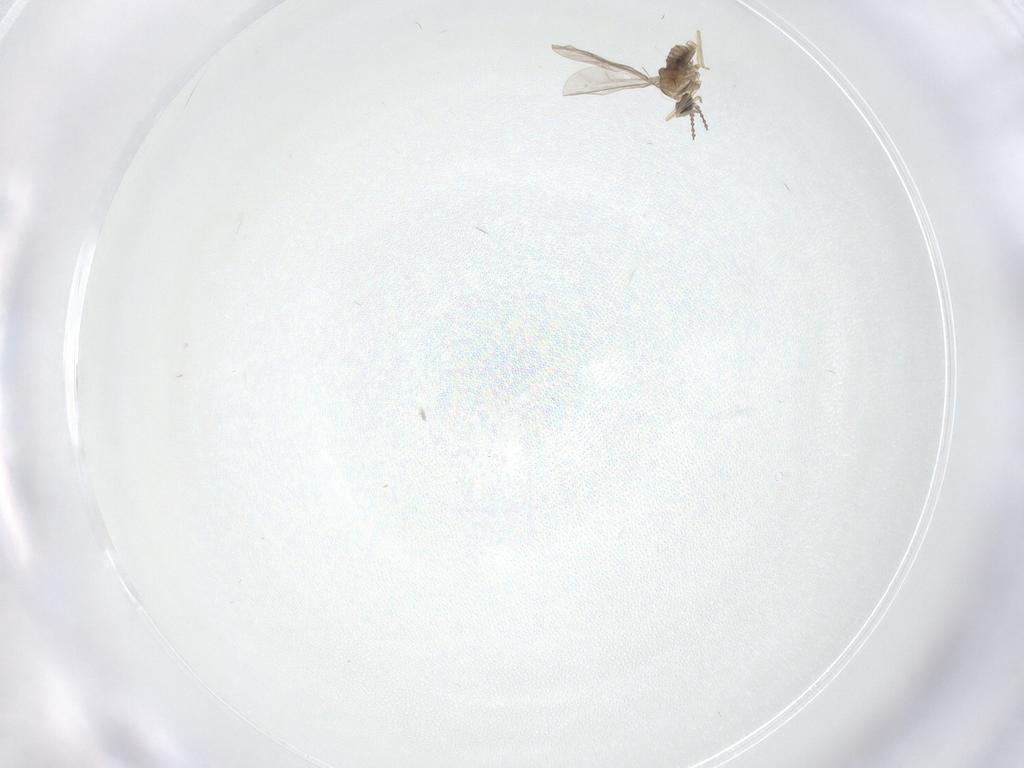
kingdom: Animalia
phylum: Arthropoda
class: Insecta
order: Diptera
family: Cecidomyiidae
